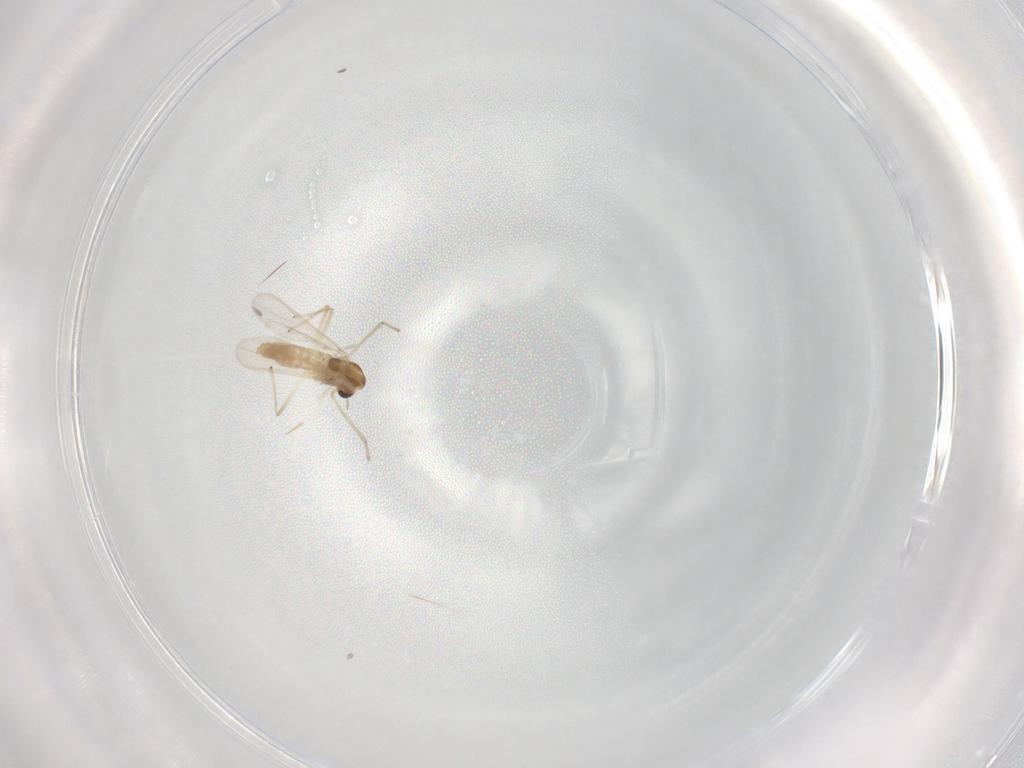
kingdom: Animalia
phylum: Arthropoda
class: Insecta
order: Diptera
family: Chironomidae
